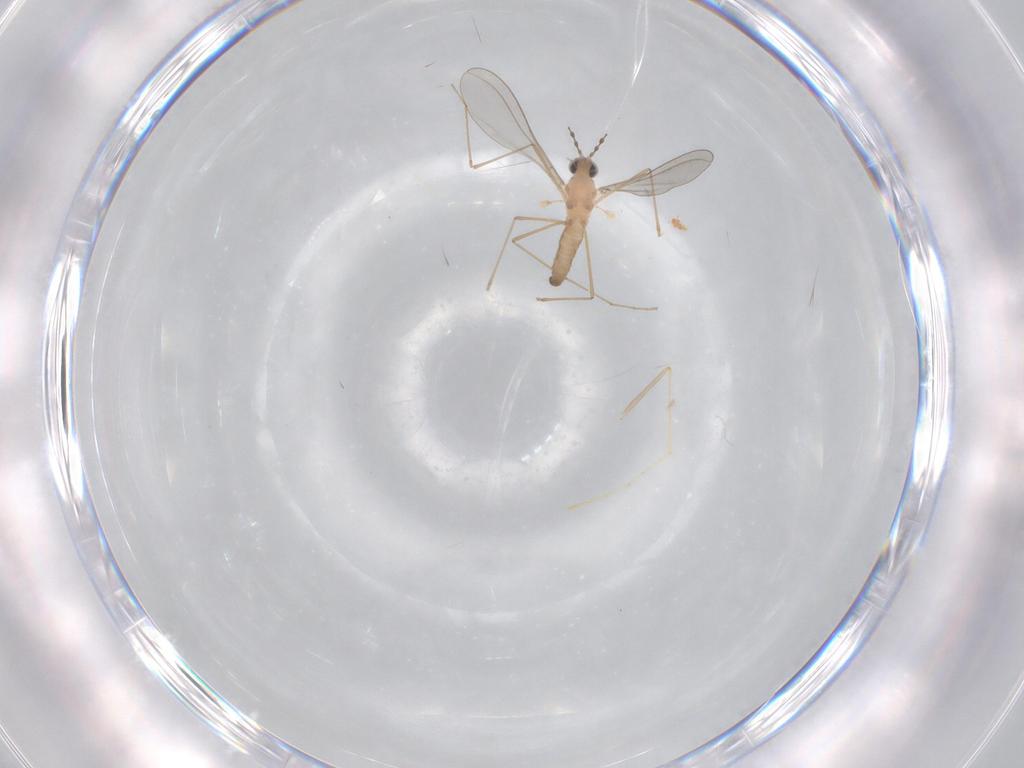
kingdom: Animalia
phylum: Arthropoda
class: Insecta
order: Diptera
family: Cecidomyiidae
